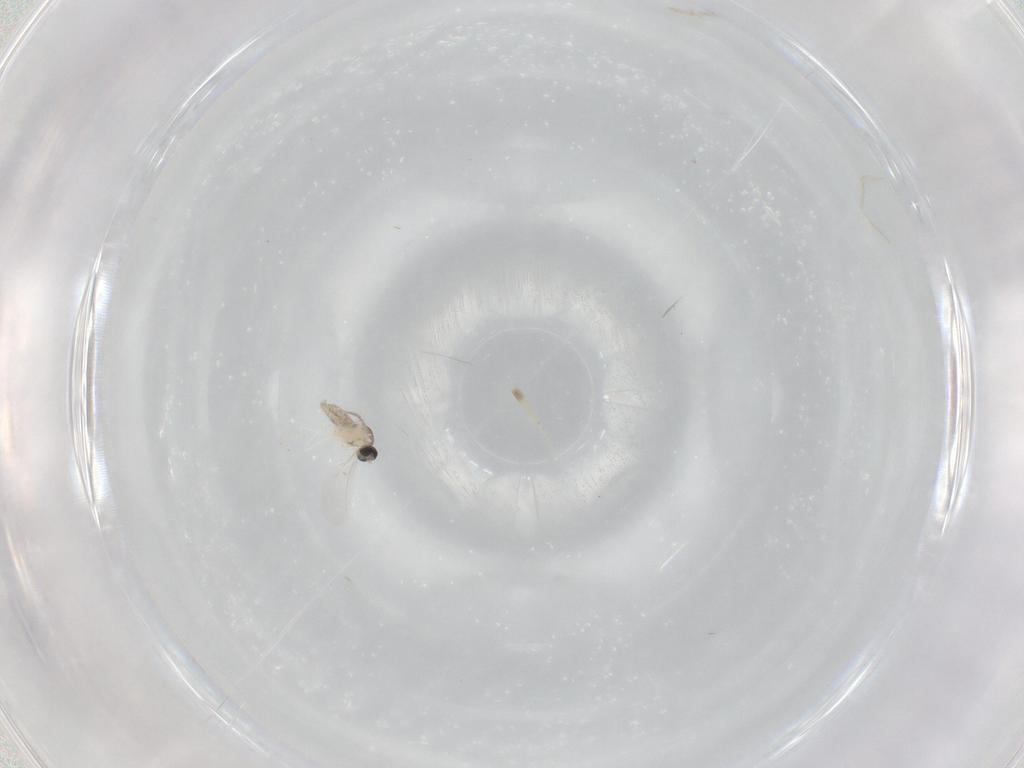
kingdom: Animalia
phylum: Arthropoda
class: Insecta
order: Diptera
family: Cecidomyiidae
